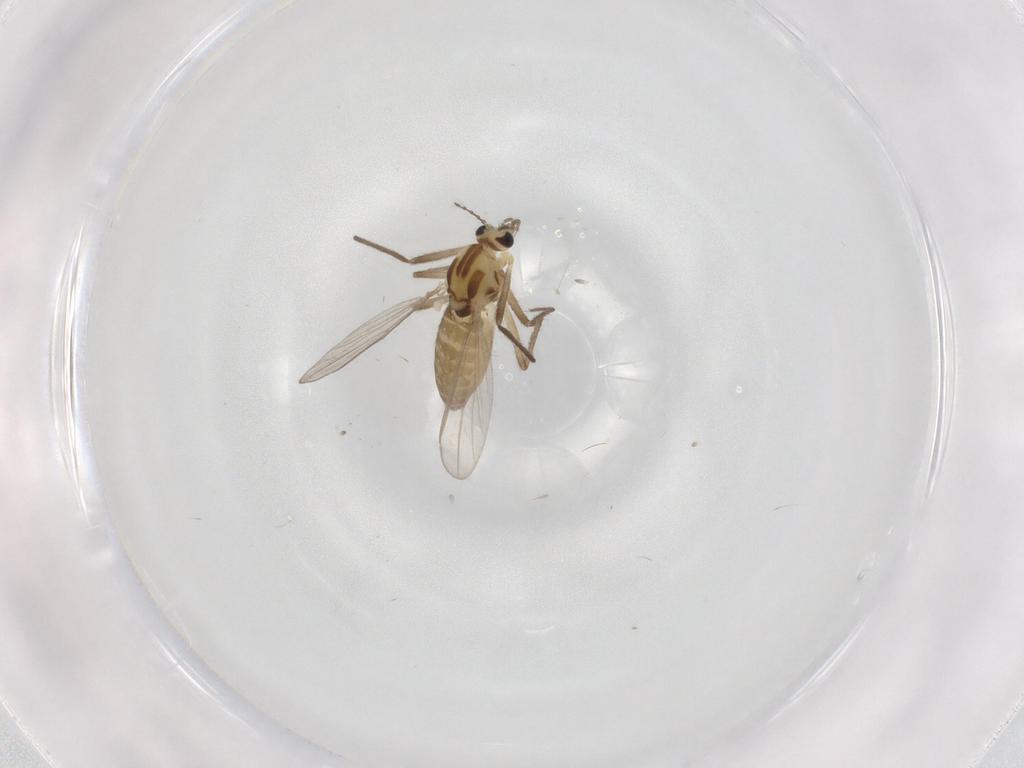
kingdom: Animalia
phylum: Arthropoda
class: Insecta
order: Diptera
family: Chironomidae
